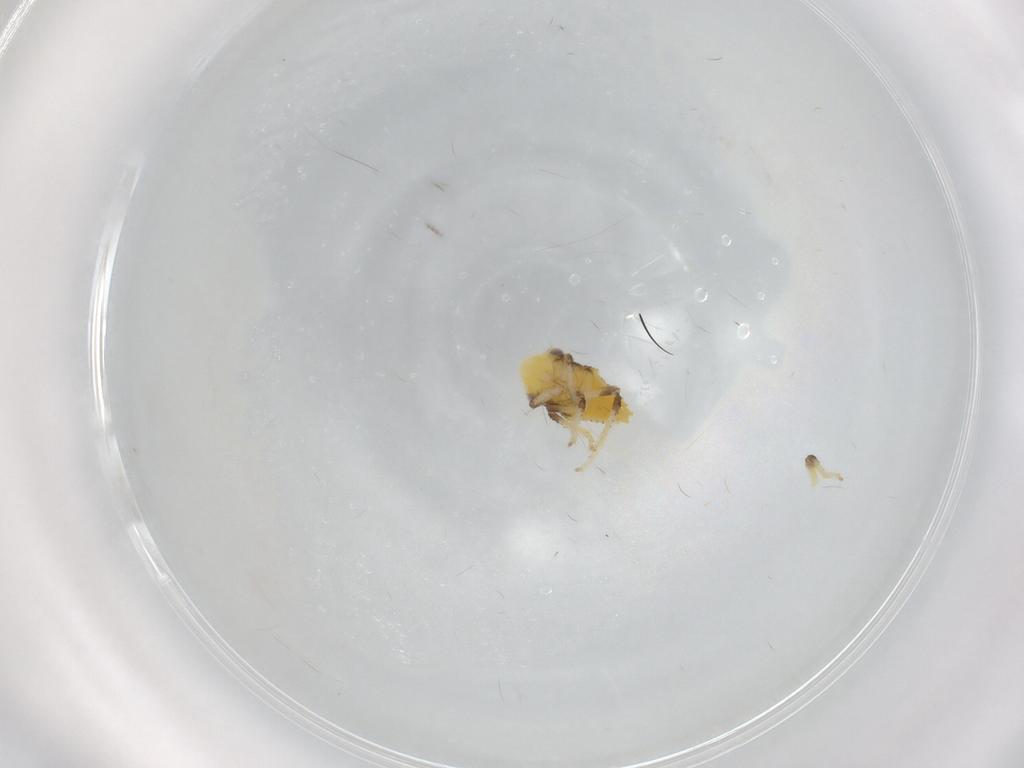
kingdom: Animalia
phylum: Arthropoda
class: Insecta
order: Hemiptera
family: Cicadellidae
